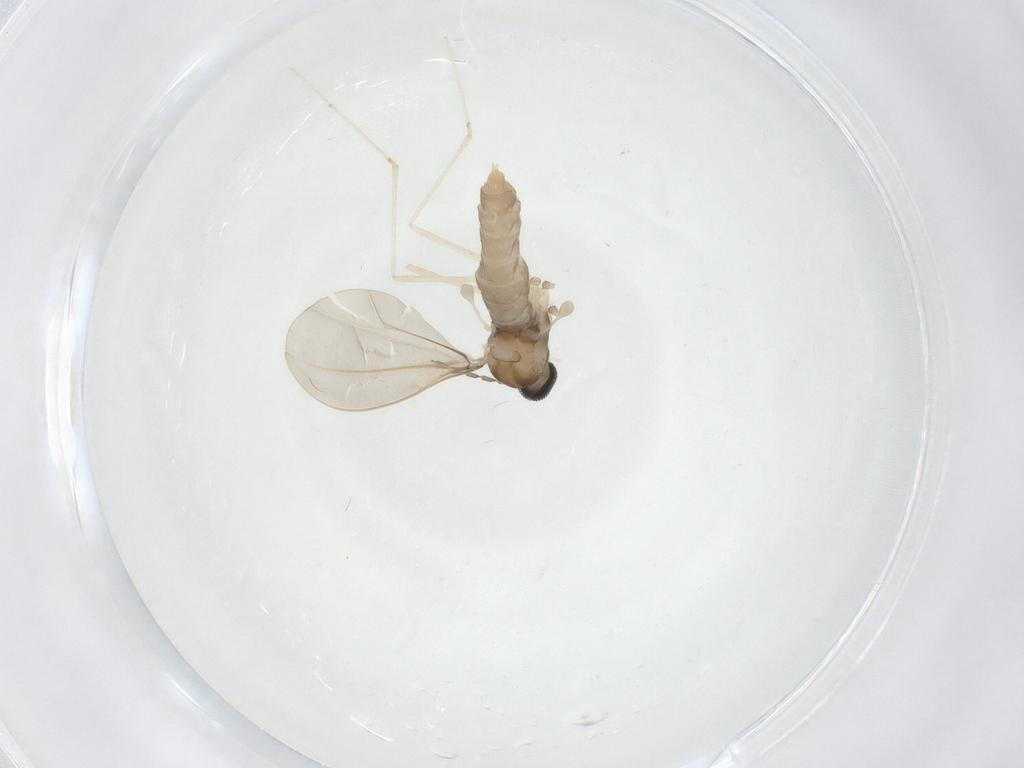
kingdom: Animalia
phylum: Arthropoda
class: Insecta
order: Diptera
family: Cecidomyiidae
